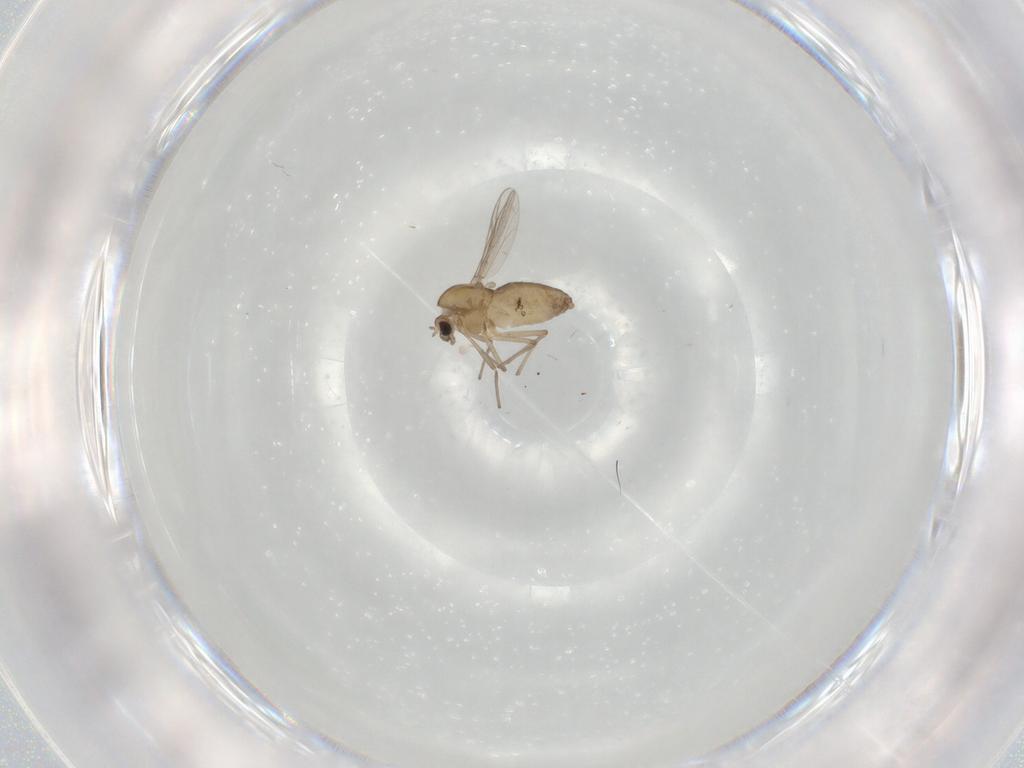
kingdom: Animalia
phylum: Arthropoda
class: Insecta
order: Diptera
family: Chironomidae
